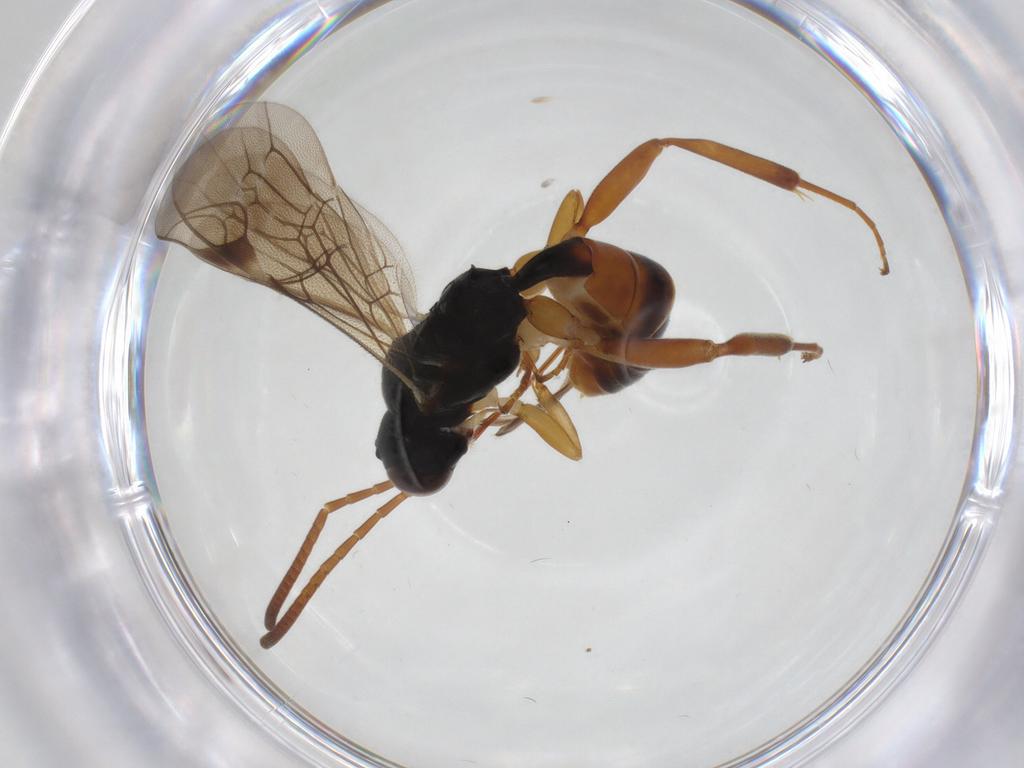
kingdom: Animalia
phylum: Arthropoda
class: Insecta
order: Hymenoptera
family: Ichneumonidae
